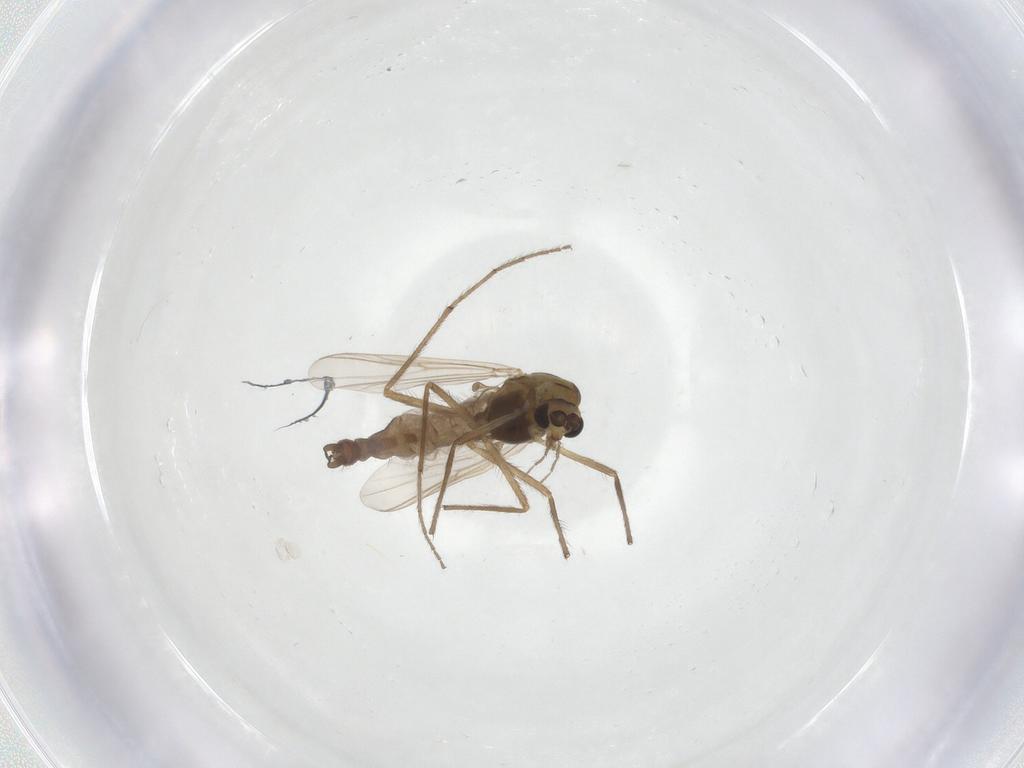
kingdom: Animalia
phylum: Arthropoda
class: Insecta
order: Diptera
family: Chironomidae
